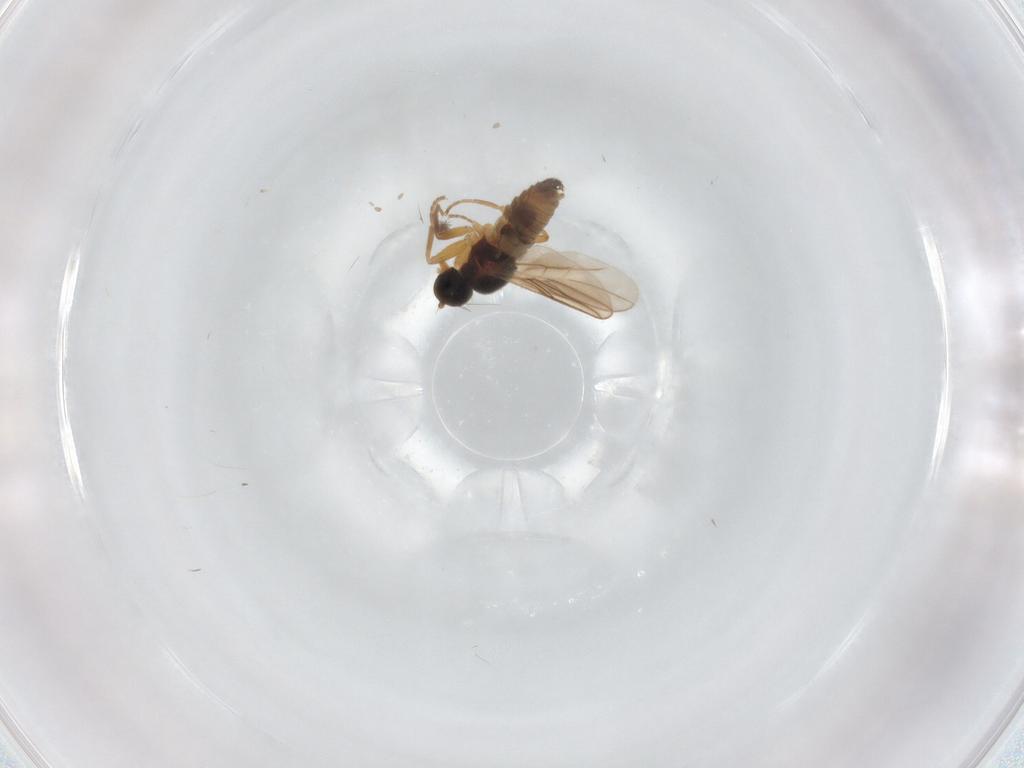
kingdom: Animalia
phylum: Arthropoda
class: Insecta
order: Diptera
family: Hybotidae
